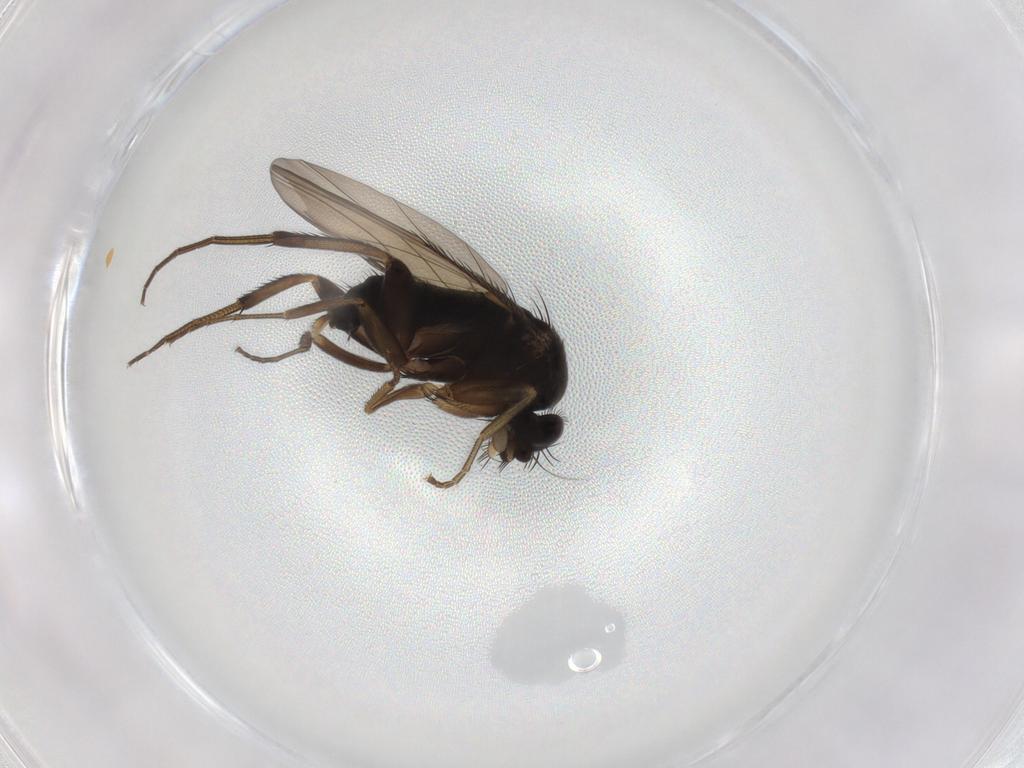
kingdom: Animalia
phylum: Arthropoda
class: Insecta
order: Diptera
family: Phoridae
